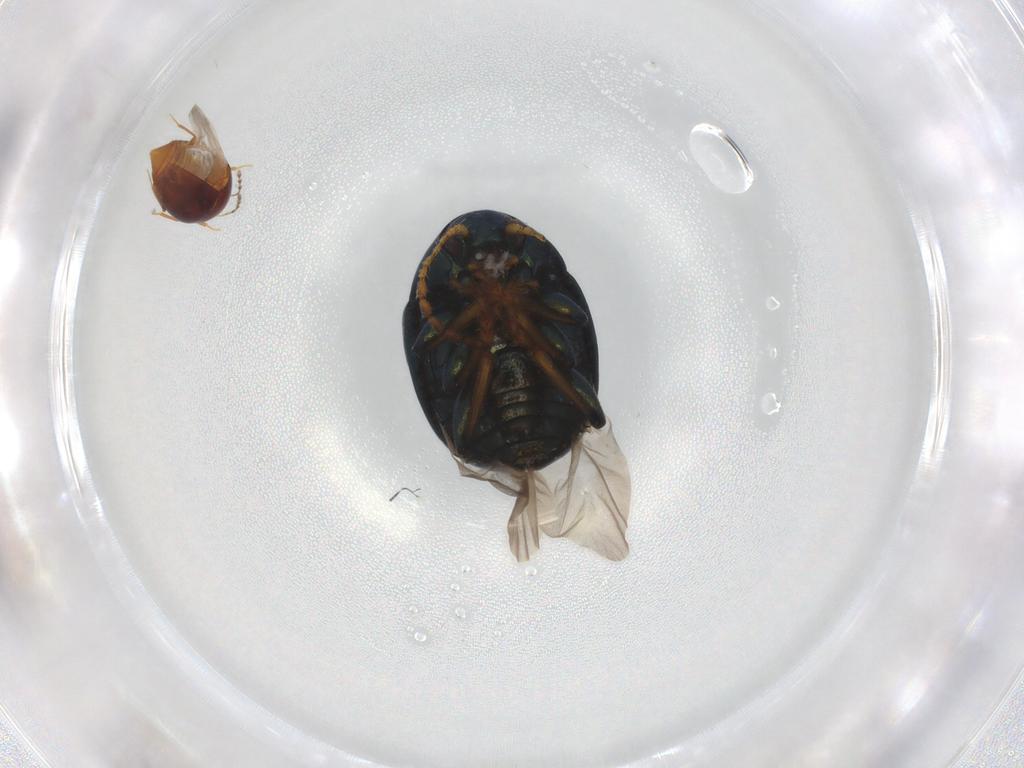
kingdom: Animalia
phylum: Arthropoda
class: Insecta
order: Coleoptera
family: Chrysomelidae
